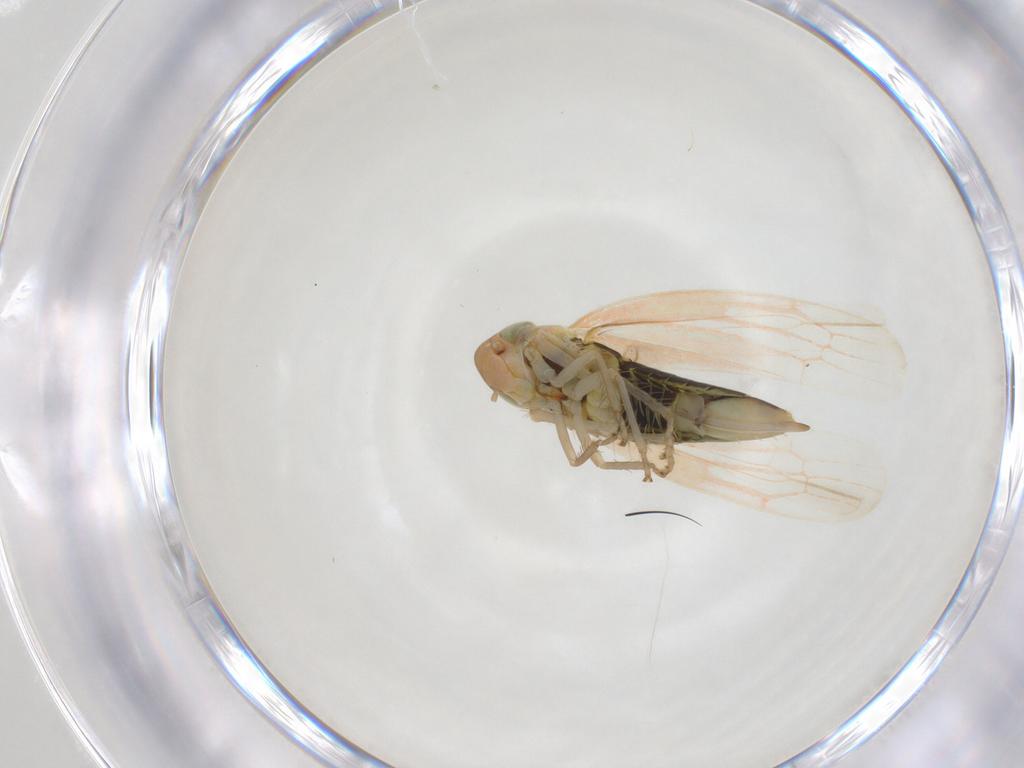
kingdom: Animalia
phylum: Arthropoda
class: Insecta
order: Hemiptera
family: Cicadellidae
